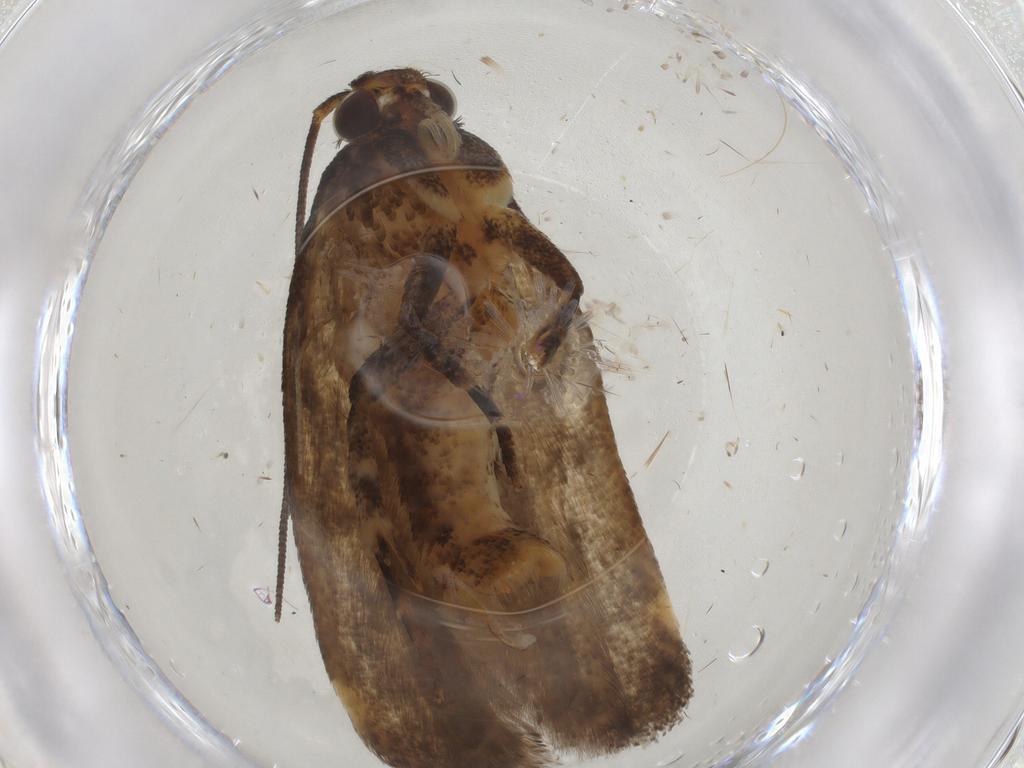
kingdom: Animalia
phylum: Arthropoda
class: Insecta
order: Lepidoptera
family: Gelechiidae
